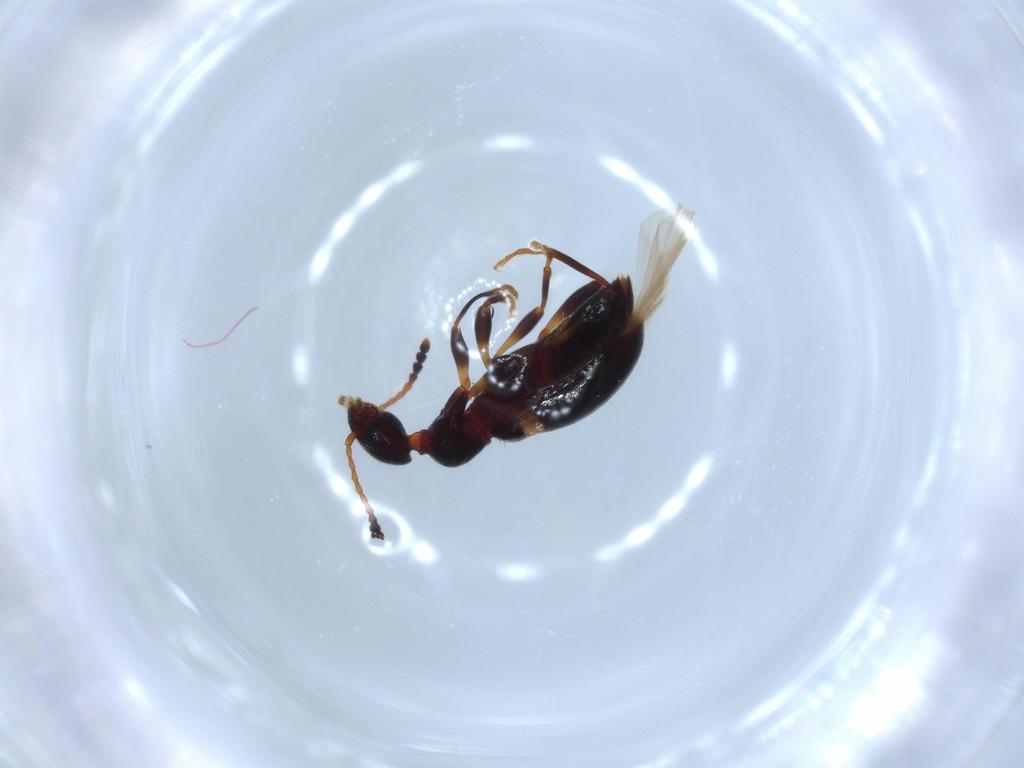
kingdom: Animalia
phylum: Arthropoda
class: Insecta
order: Coleoptera
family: Anthicidae
